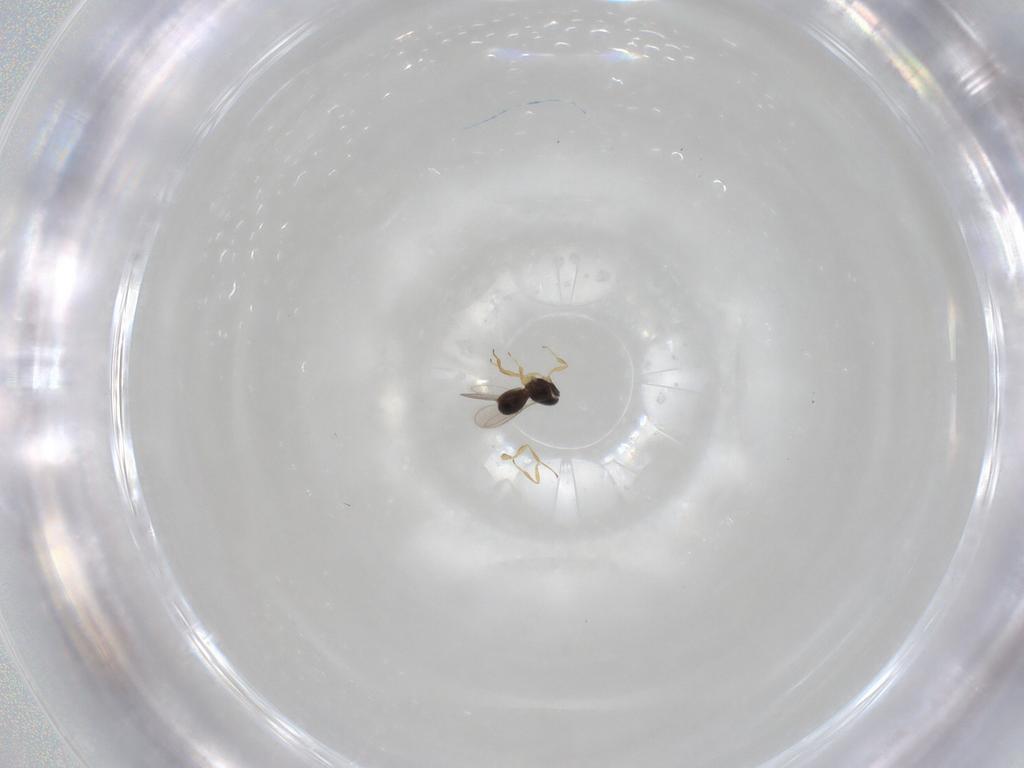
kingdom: Animalia
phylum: Arthropoda
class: Insecta
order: Hymenoptera
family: Scelionidae
